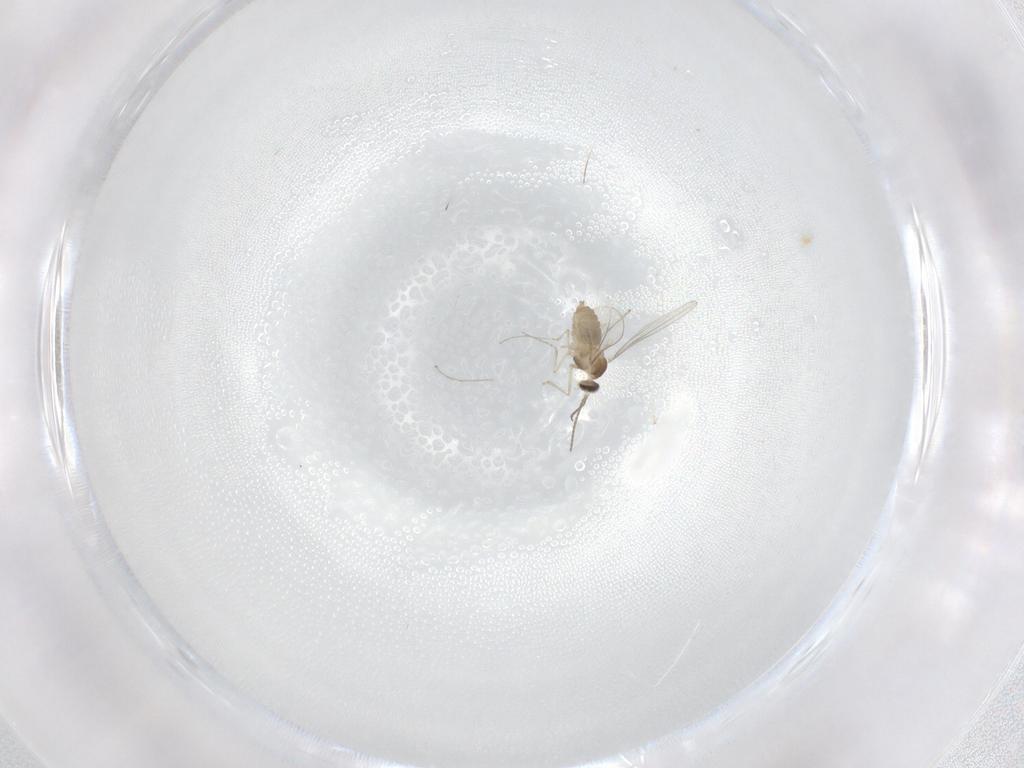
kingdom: Animalia
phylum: Arthropoda
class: Insecta
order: Diptera
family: Cecidomyiidae
